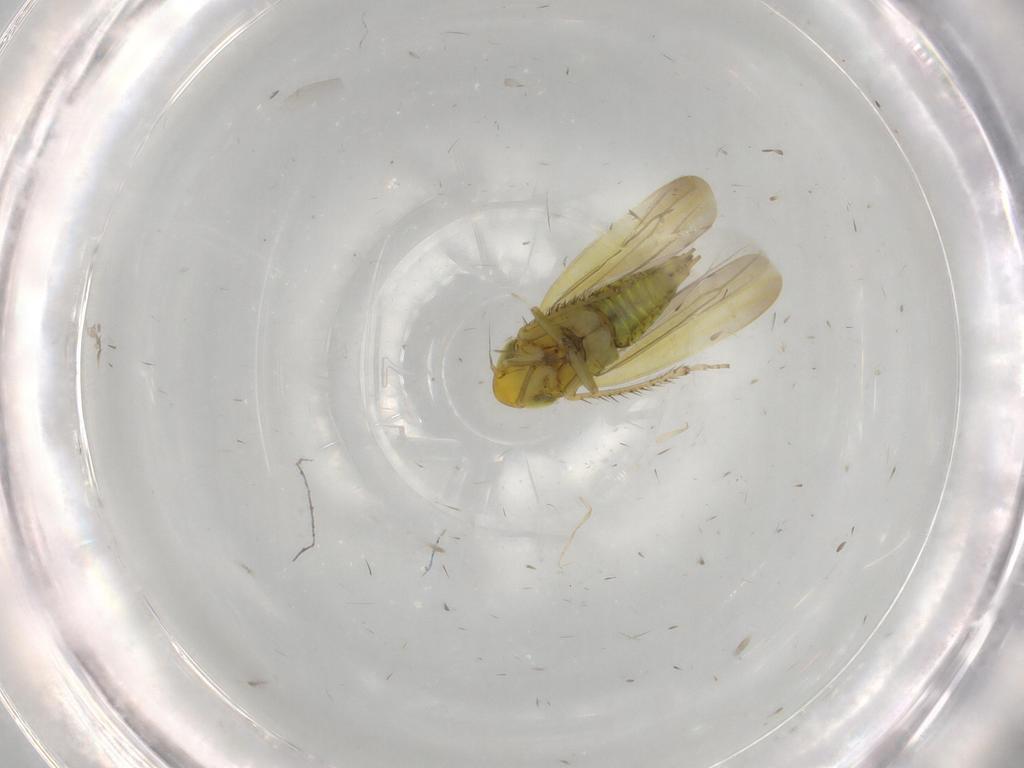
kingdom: Animalia
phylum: Arthropoda
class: Insecta
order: Hemiptera
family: Cicadellidae
